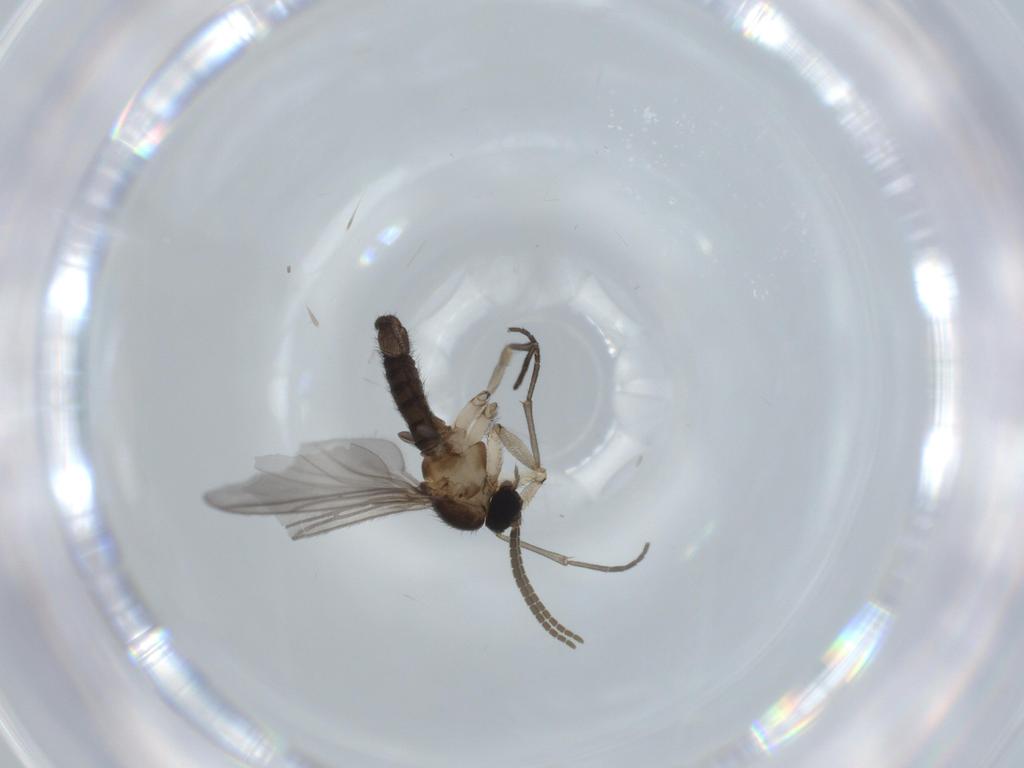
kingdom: Animalia
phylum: Arthropoda
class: Insecta
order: Diptera
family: Sciaridae
